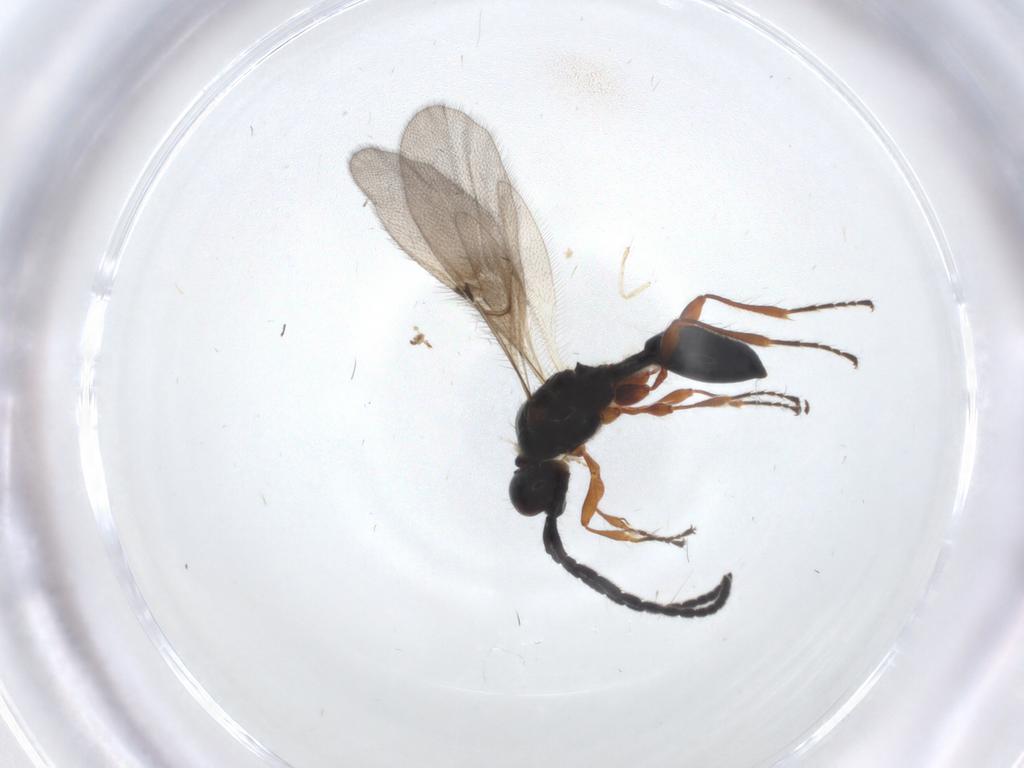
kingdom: Animalia
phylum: Arthropoda
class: Insecta
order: Hymenoptera
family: Diapriidae
